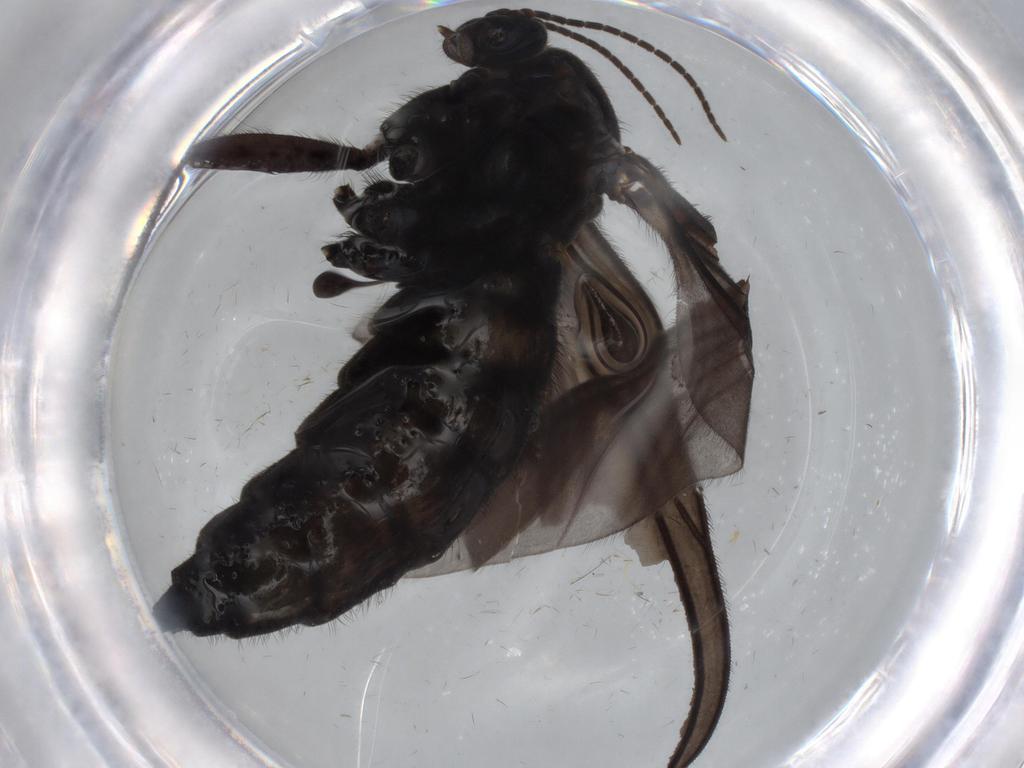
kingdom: Animalia
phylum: Arthropoda
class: Insecta
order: Diptera
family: Sciaridae
